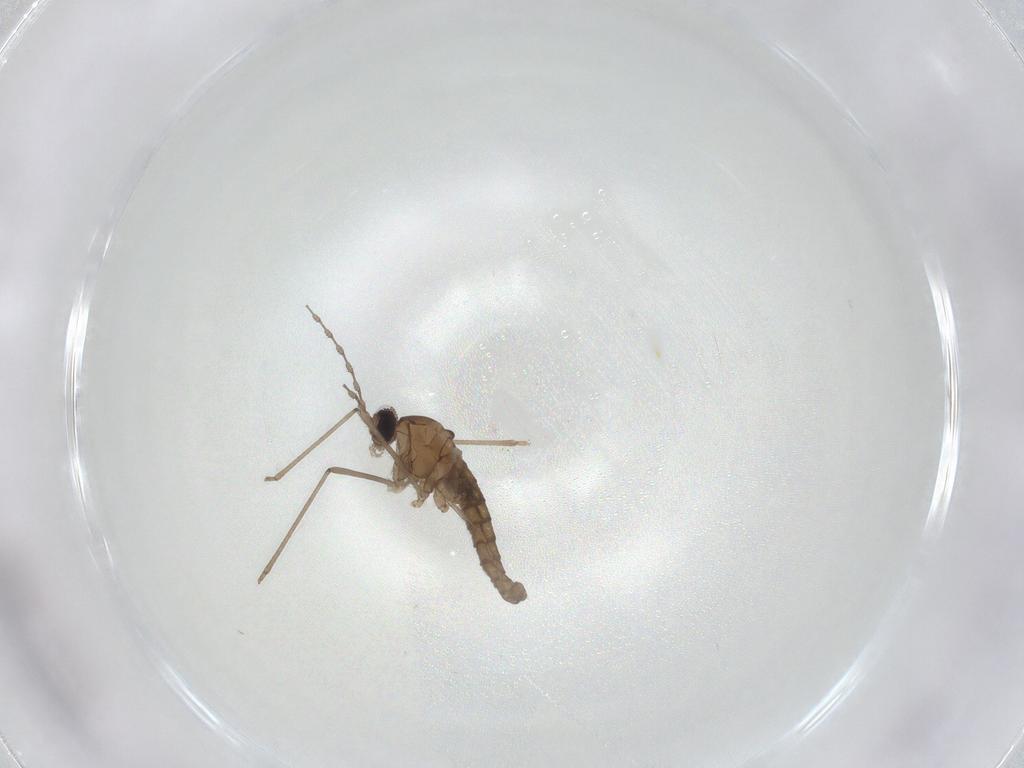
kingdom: Animalia
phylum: Arthropoda
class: Insecta
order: Diptera
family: Cecidomyiidae
